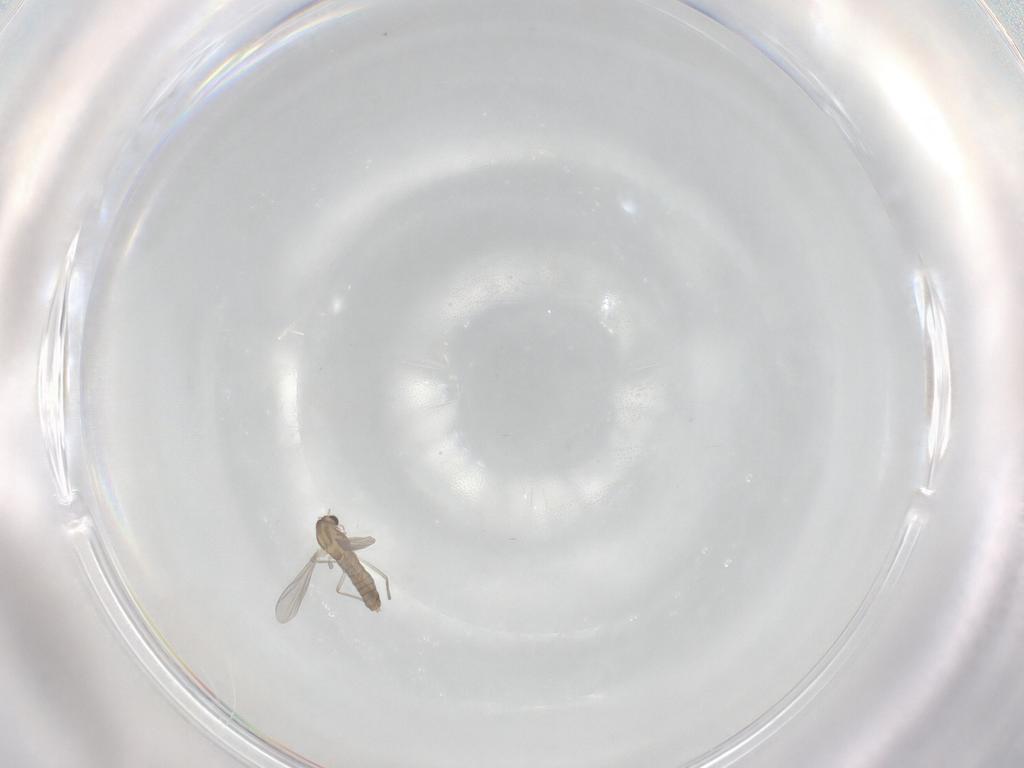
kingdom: Animalia
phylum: Arthropoda
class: Insecta
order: Diptera
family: Chironomidae
